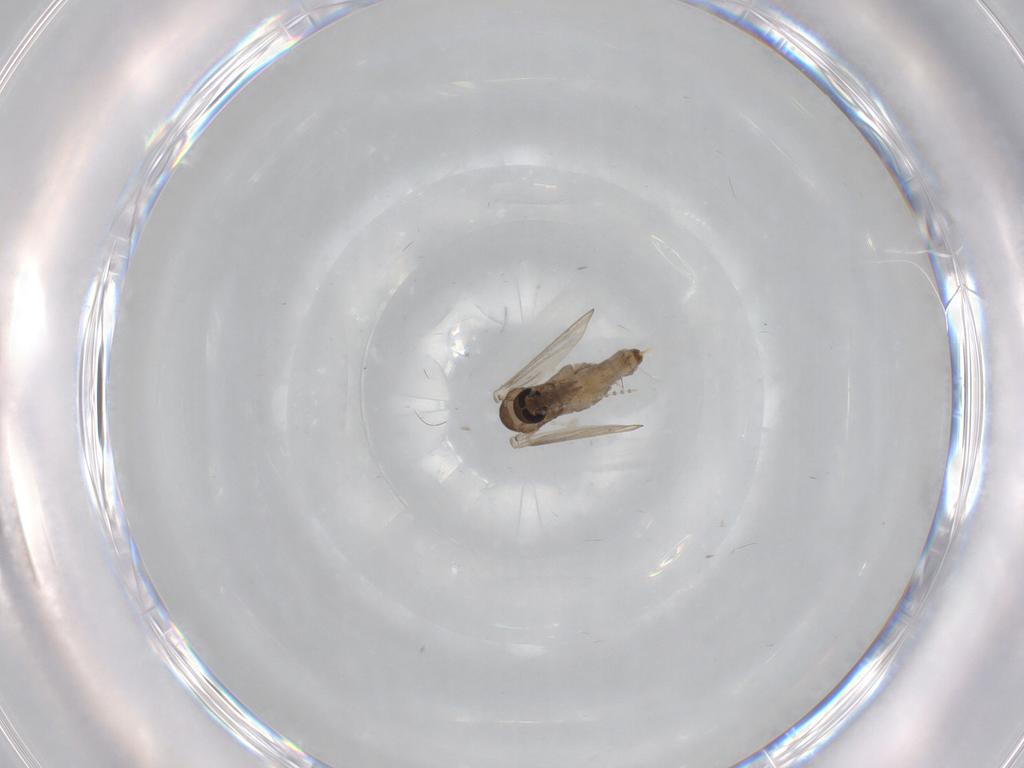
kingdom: Animalia
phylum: Arthropoda
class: Insecta
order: Diptera
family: Psychodidae
